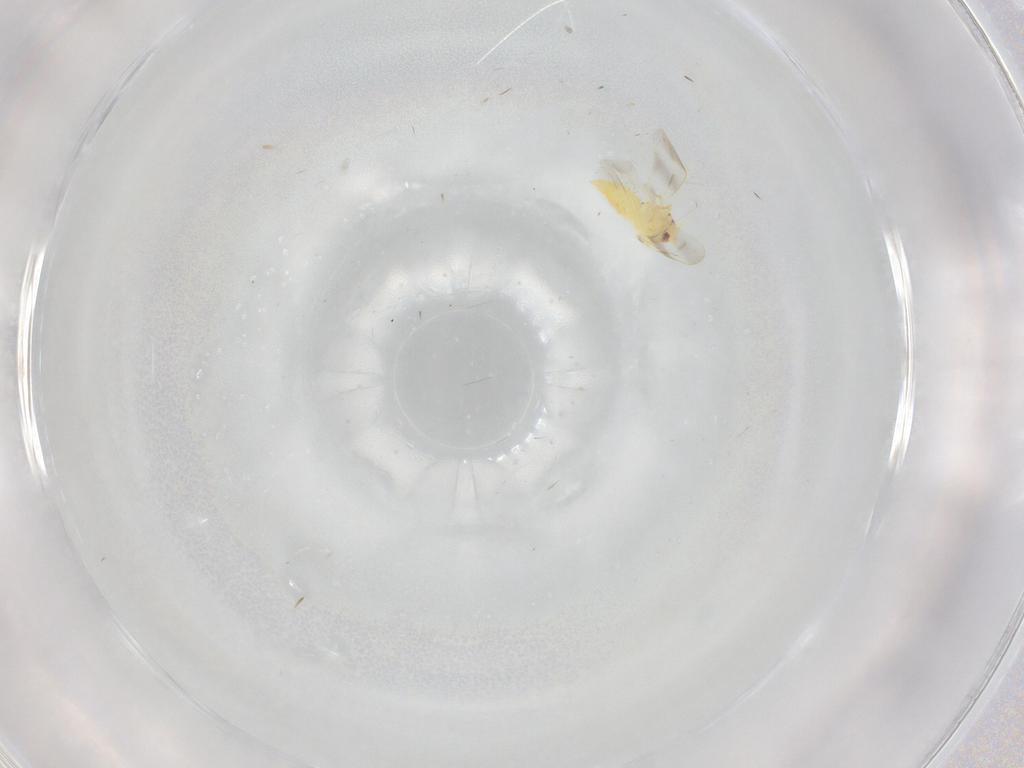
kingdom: Animalia
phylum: Arthropoda
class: Insecta
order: Hemiptera
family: Aleyrodidae
